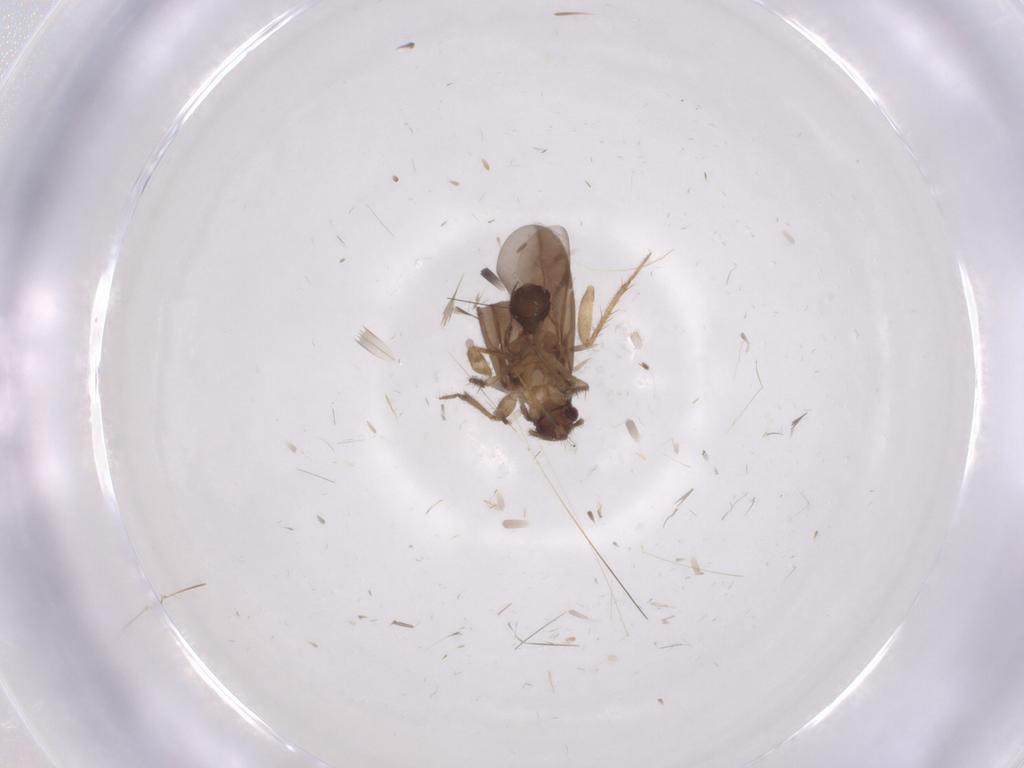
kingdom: Animalia
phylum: Arthropoda
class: Insecta
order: Hemiptera
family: Ceratocombidae
